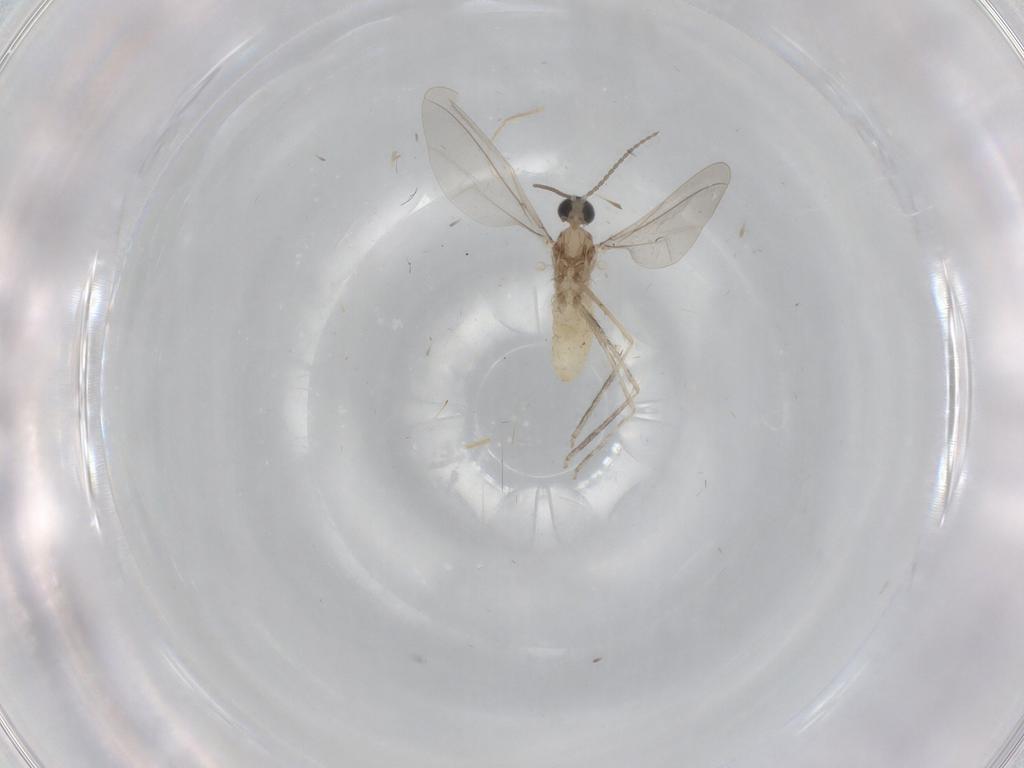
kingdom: Animalia
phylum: Arthropoda
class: Insecta
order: Diptera
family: Cecidomyiidae
